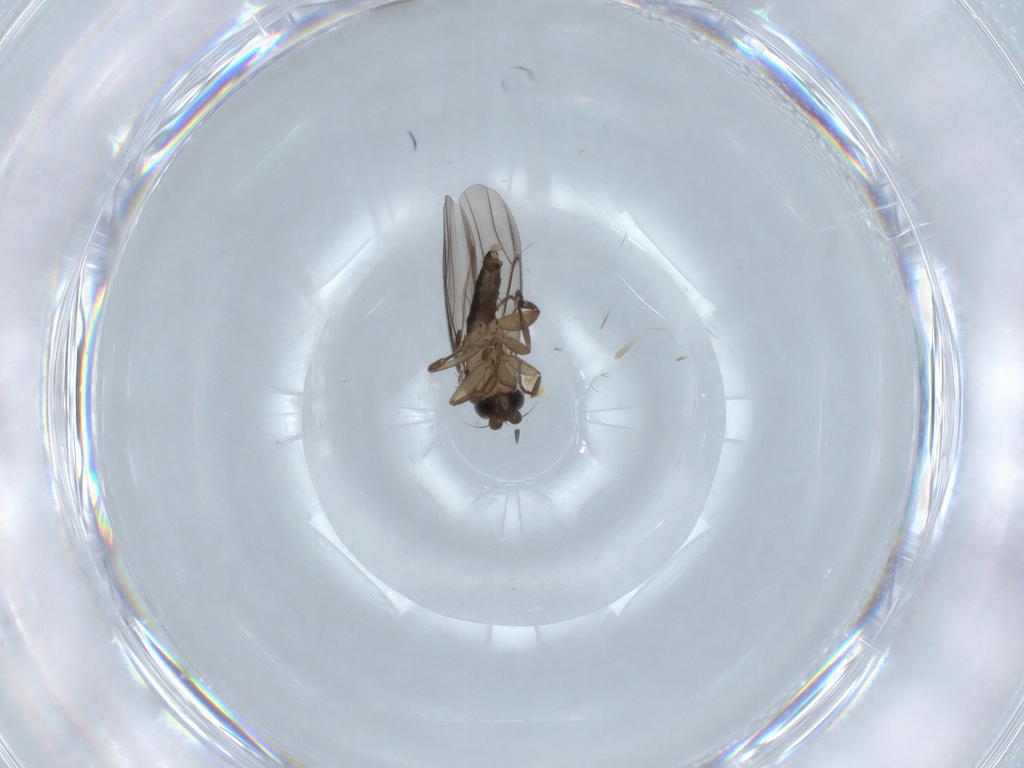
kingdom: Animalia
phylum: Arthropoda
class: Insecta
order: Diptera
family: Phoridae
